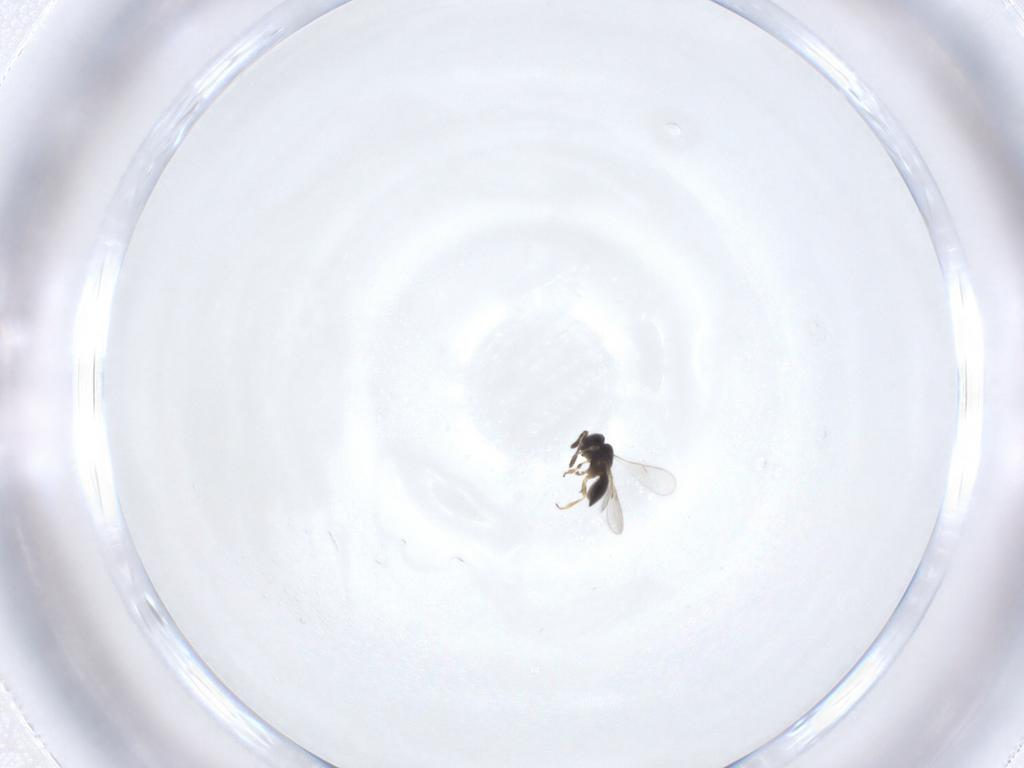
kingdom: Animalia
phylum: Arthropoda
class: Insecta
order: Hymenoptera
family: Scelionidae
